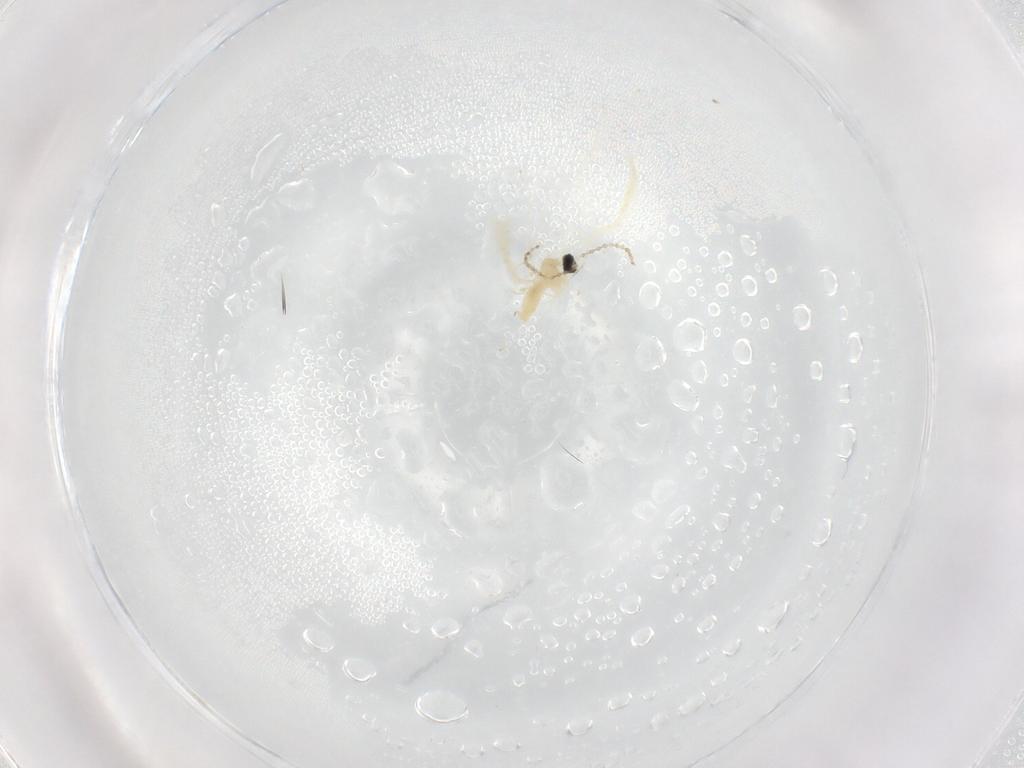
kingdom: Animalia
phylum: Arthropoda
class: Insecta
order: Diptera
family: Cecidomyiidae
